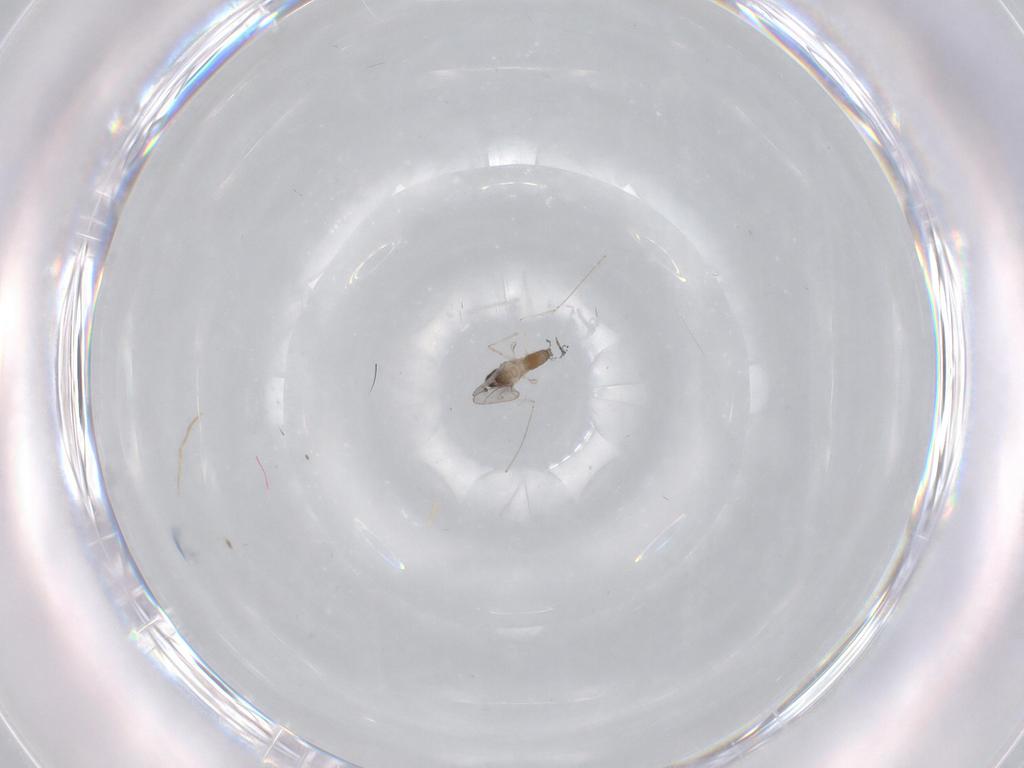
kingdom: Animalia
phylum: Arthropoda
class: Insecta
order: Diptera
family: Cecidomyiidae
